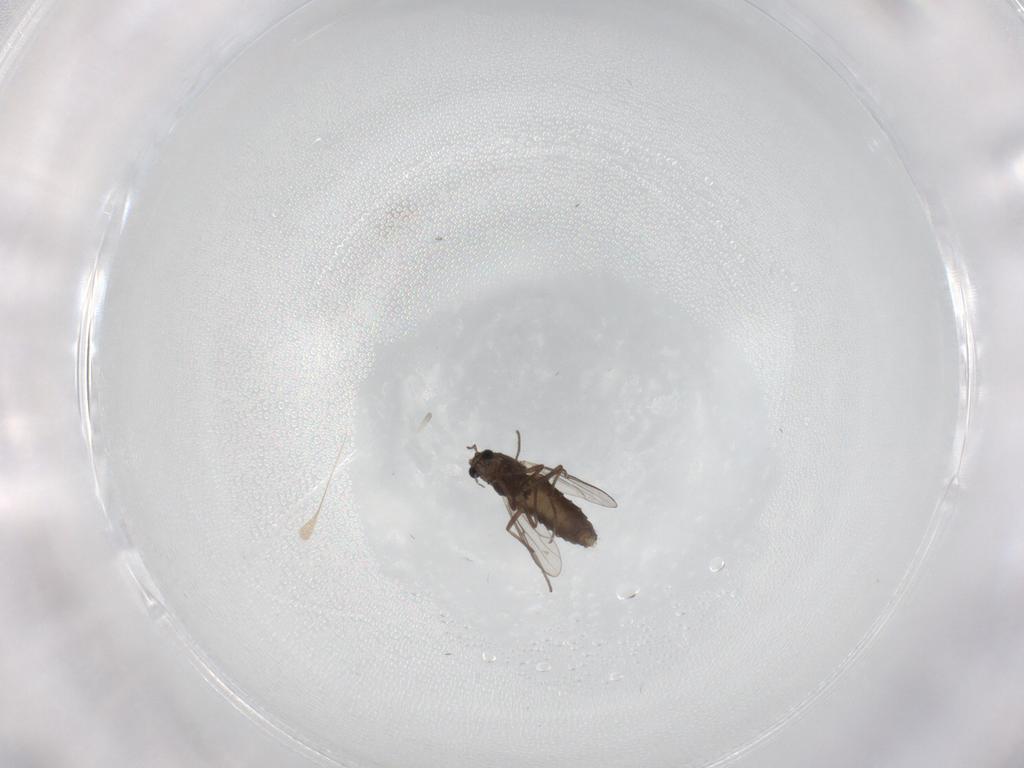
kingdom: Animalia
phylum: Arthropoda
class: Insecta
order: Diptera
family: Chironomidae
